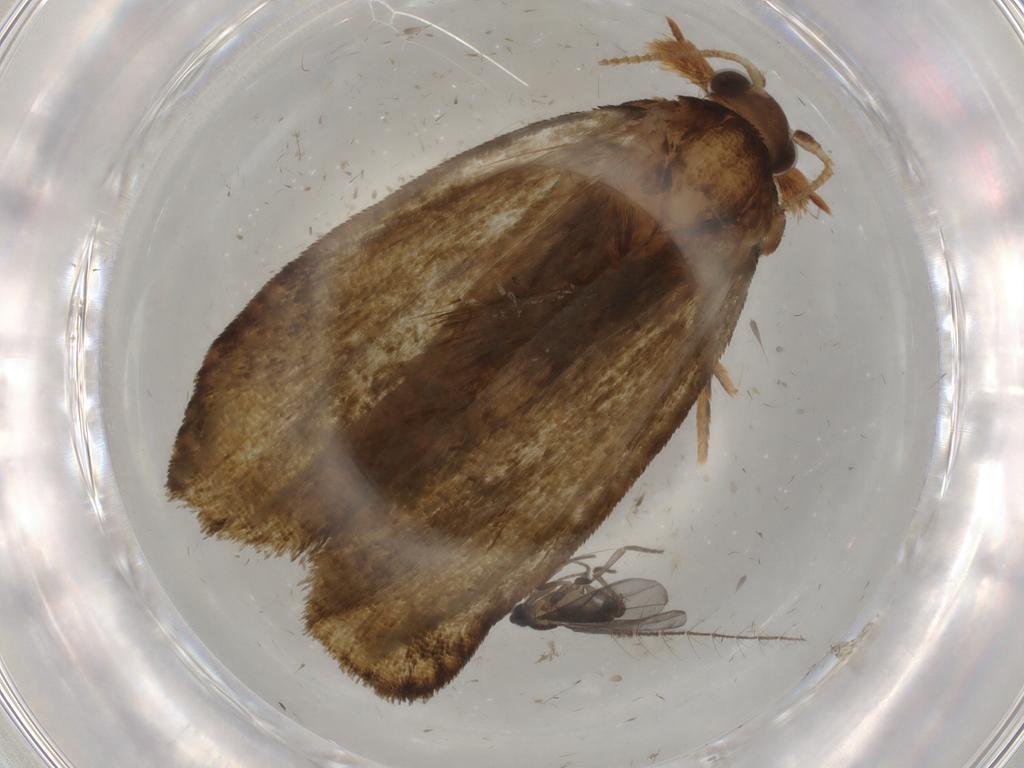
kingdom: Animalia
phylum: Arthropoda
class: Insecta
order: Lepidoptera
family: Geometridae
